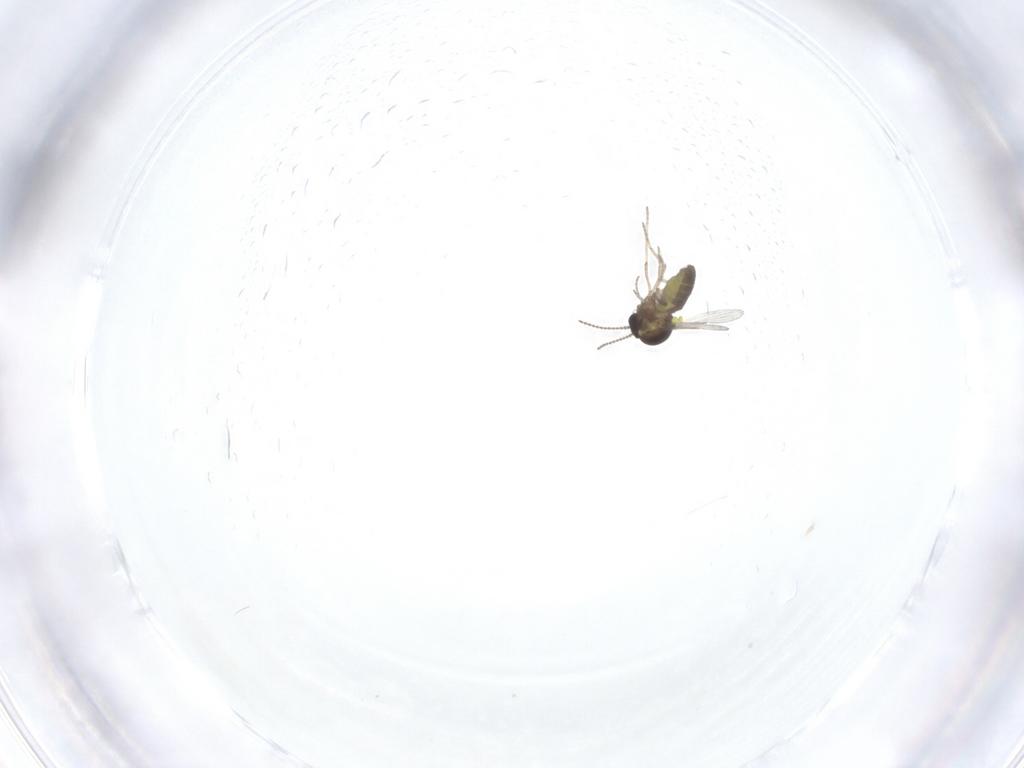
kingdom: Animalia
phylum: Arthropoda
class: Insecta
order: Diptera
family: Ceratopogonidae
